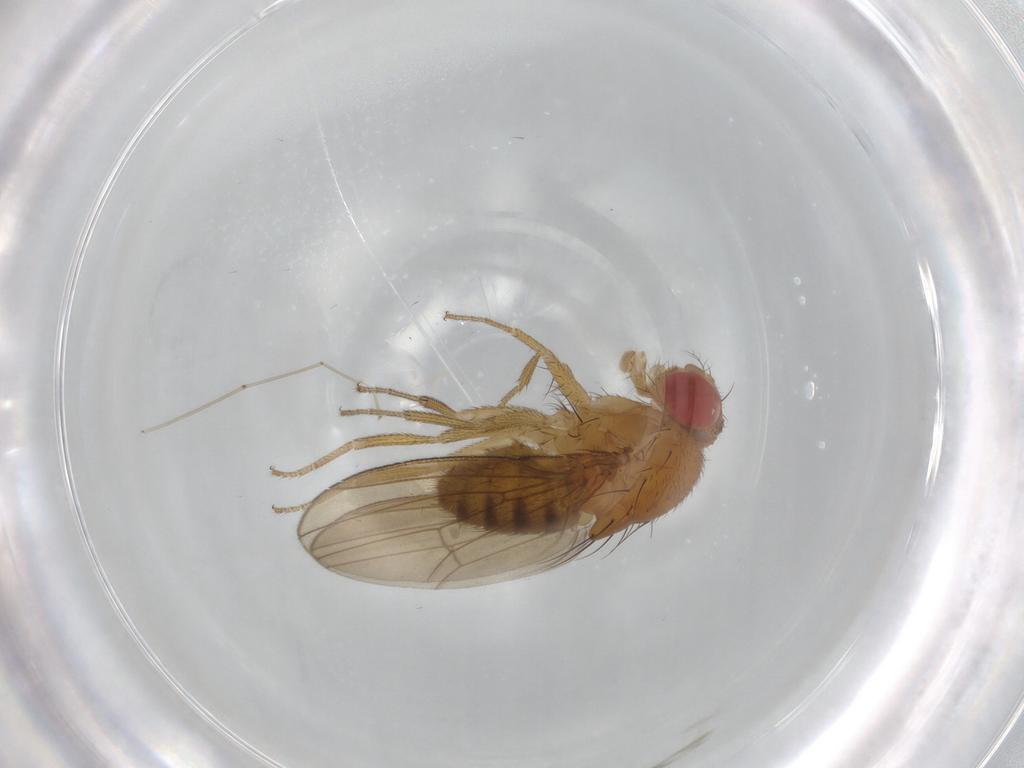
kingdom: Animalia
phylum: Arthropoda
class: Insecta
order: Diptera
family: Drosophilidae
